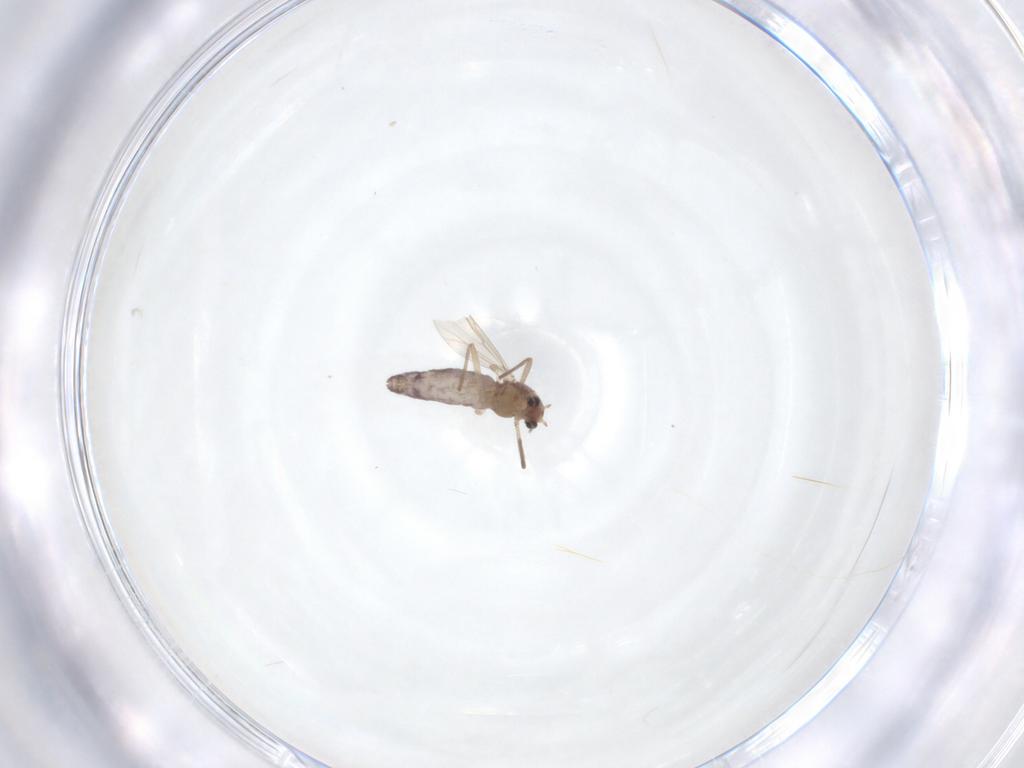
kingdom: Animalia
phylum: Arthropoda
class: Insecta
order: Diptera
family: Chironomidae
